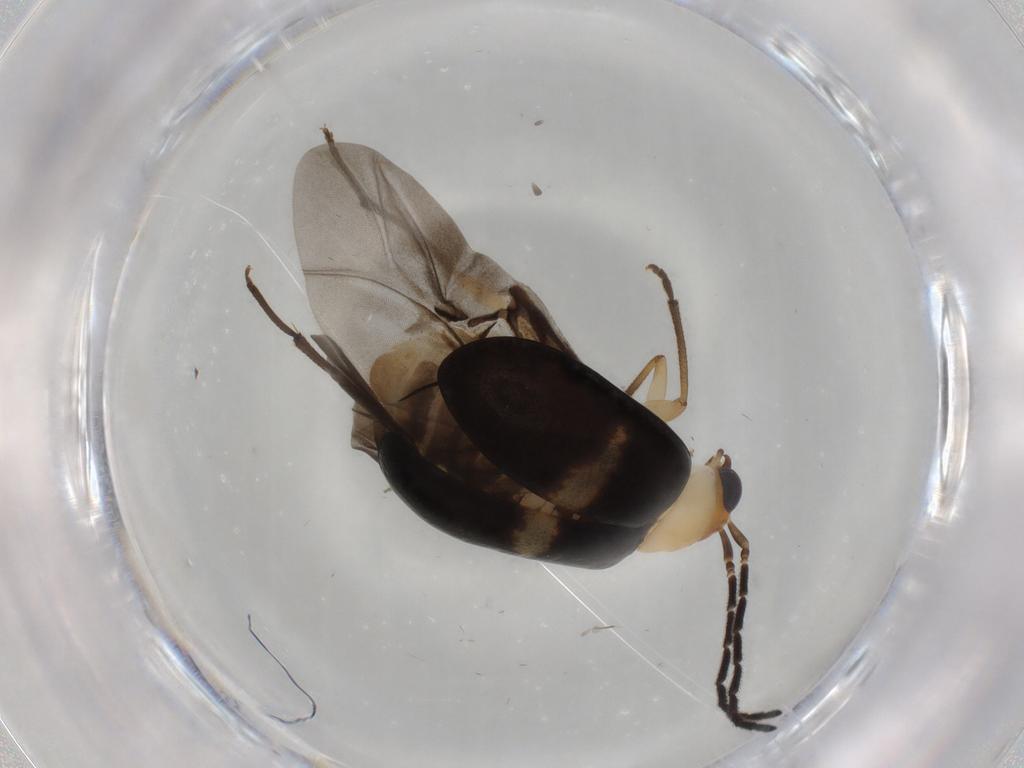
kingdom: Animalia
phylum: Arthropoda
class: Insecta
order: Coleoptera
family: Chrysomelidae
